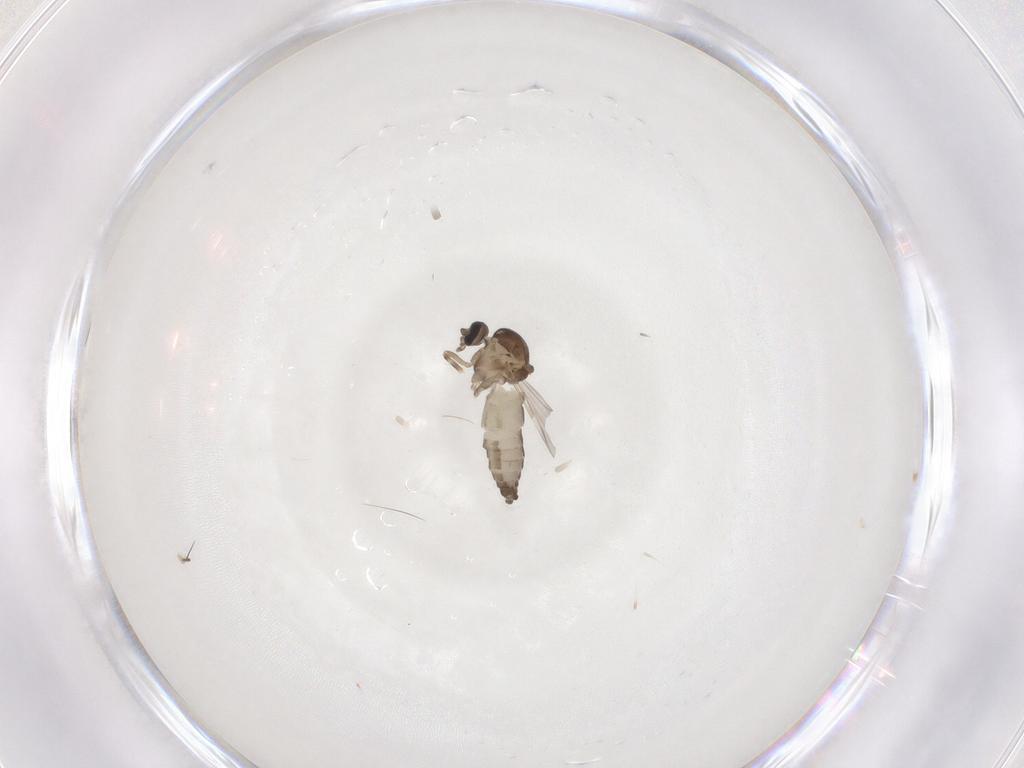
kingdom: Animalia
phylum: Arthropoda
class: Insecta
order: Diptera
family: Ceratopogonidae
